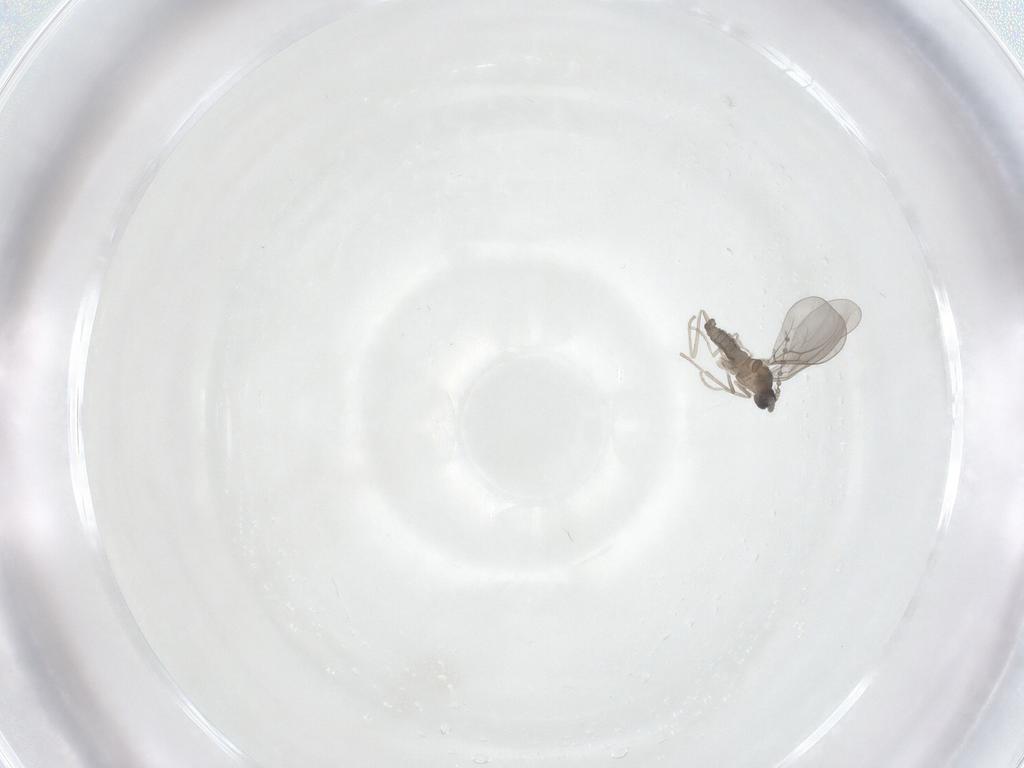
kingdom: Animalia
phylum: Arthropoda
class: Insecta
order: Diptera
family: Cecidomyiidae
